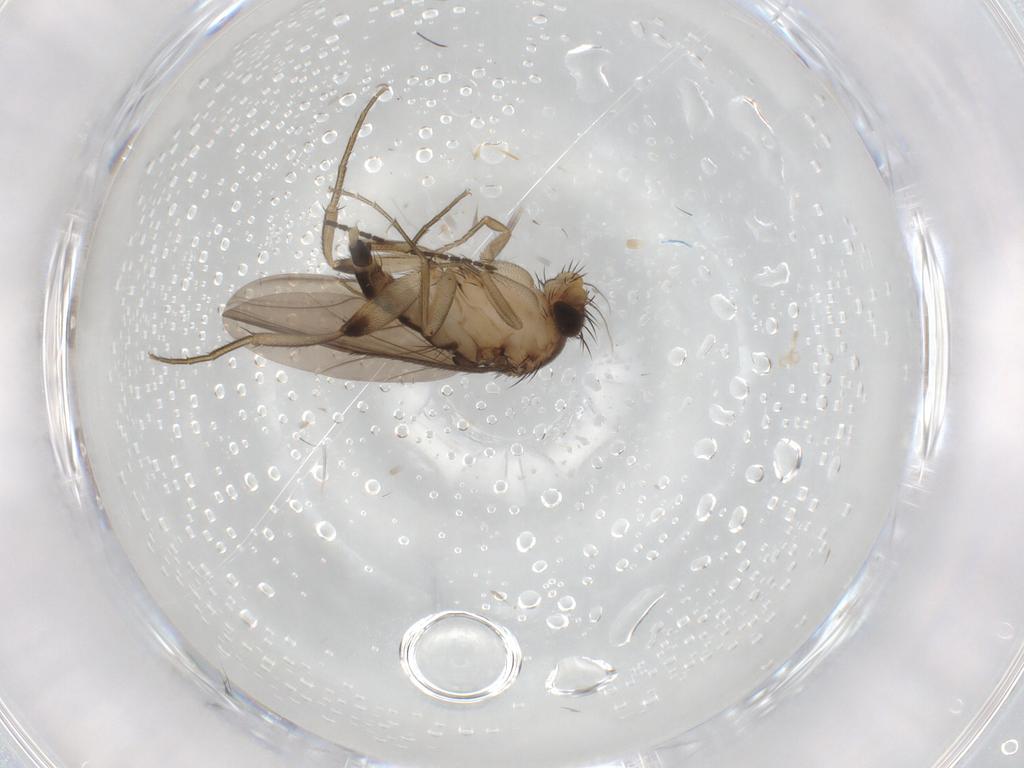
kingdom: Animalia
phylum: Arthropoda
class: Insecta
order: Diptera
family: Phoridae
